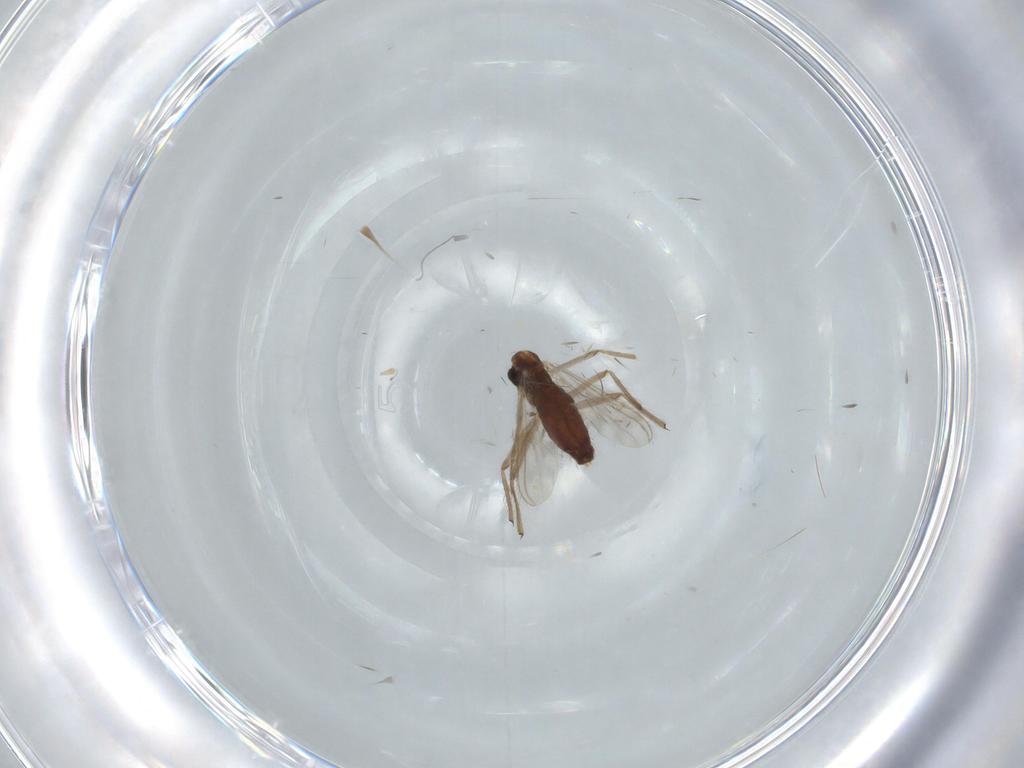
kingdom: Animalia
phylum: Arthropoda
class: Insecta
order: Diptera
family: Chironomidae
